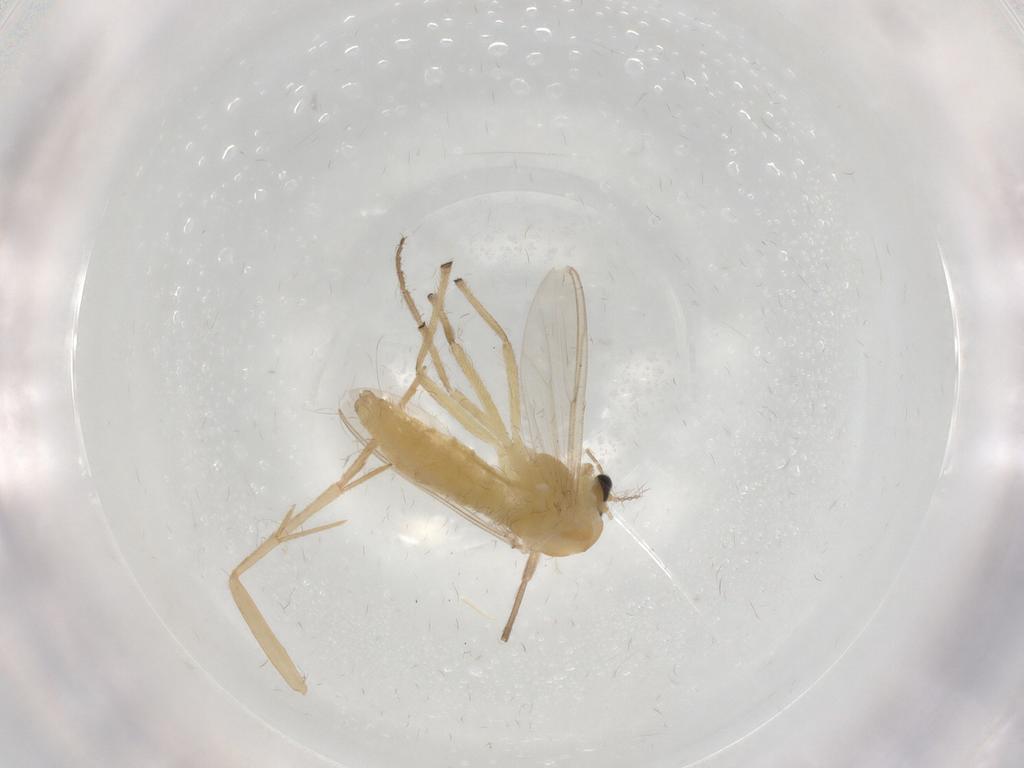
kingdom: Animalia
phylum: Arthropoda
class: Insecta
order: Diptera
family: Chironomidae
